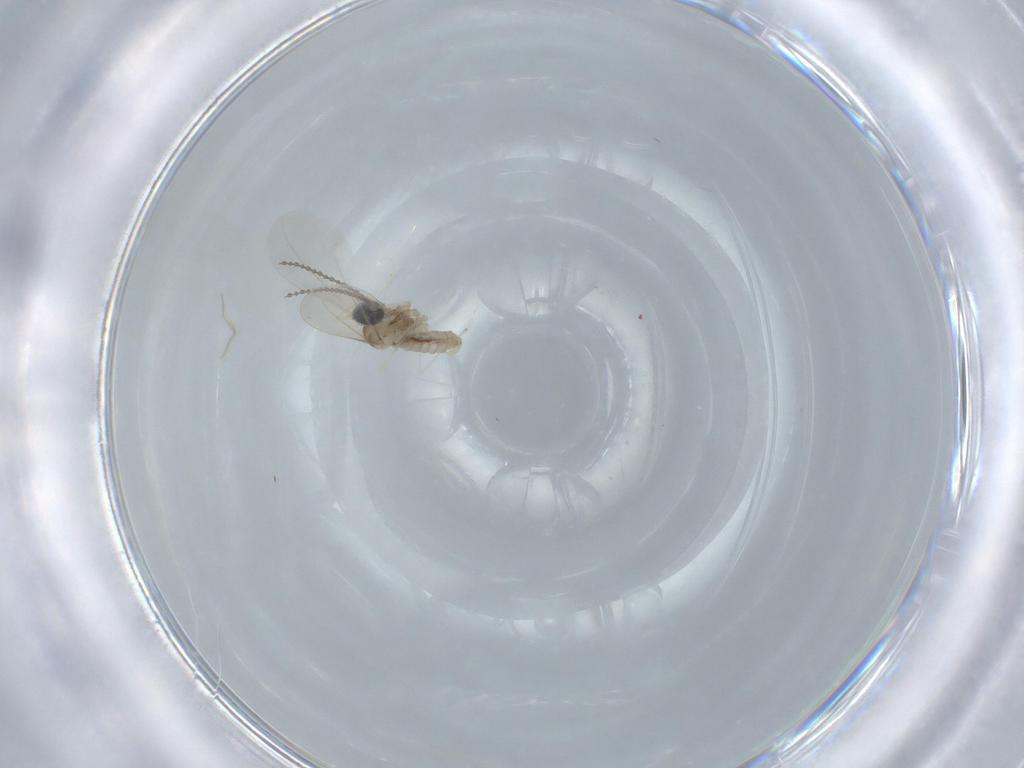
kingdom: Animalia
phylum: Arthropoda
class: Insecta
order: Diptera
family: Cecidomyiidae
